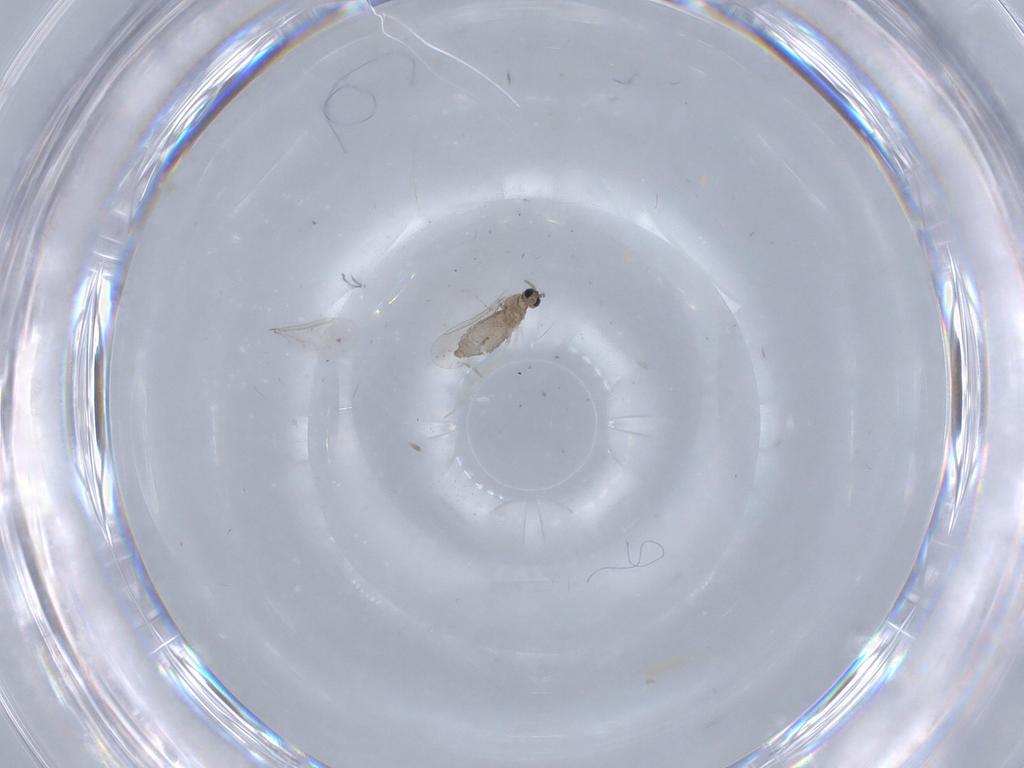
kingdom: Animalia
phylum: Arthropoda
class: Insecta
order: Diptera
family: Cecidomyiidae
